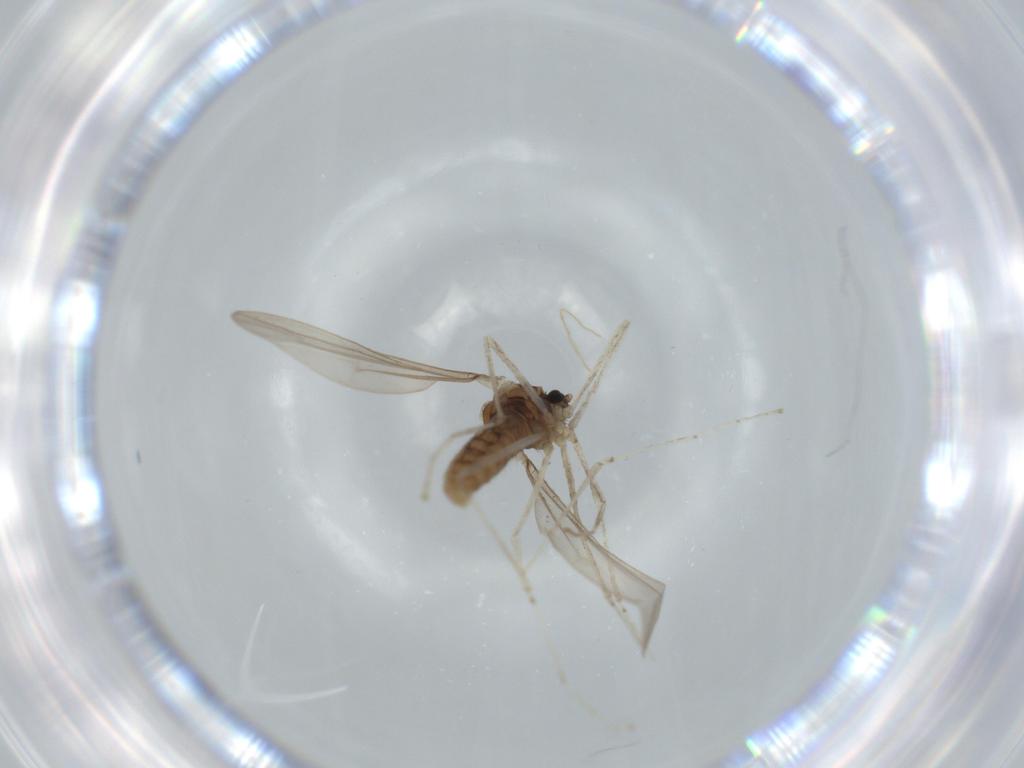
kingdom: Animalia
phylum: Arthropoda
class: Insecta
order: Diptera
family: Cecidomyiidae
